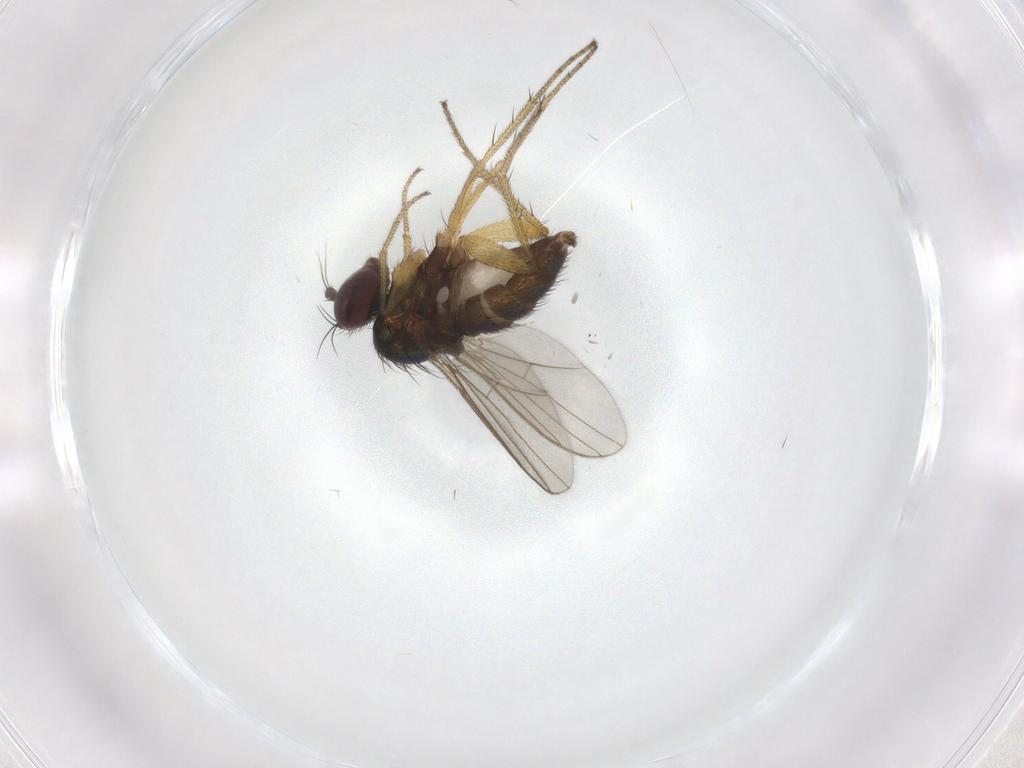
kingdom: Animalia
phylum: Arthropoda
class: Insecta
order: Diptera
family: Dolichopodidae
